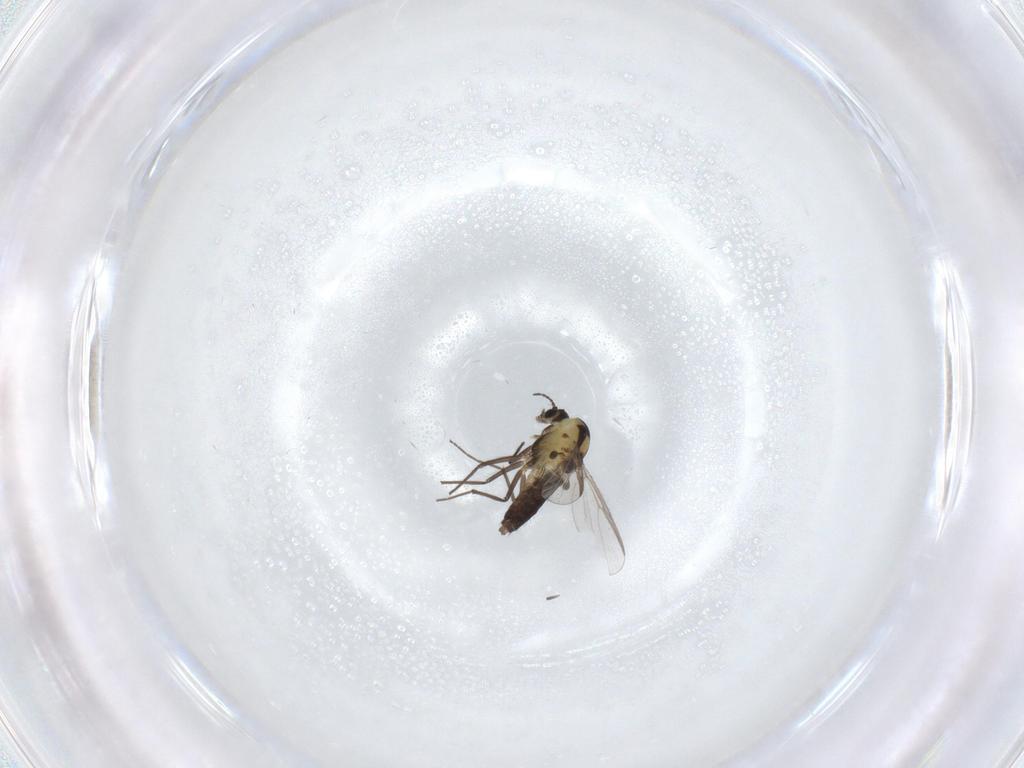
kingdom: Animalia
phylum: Arthropoda
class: Insecta
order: Diptera
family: Chironomidae
